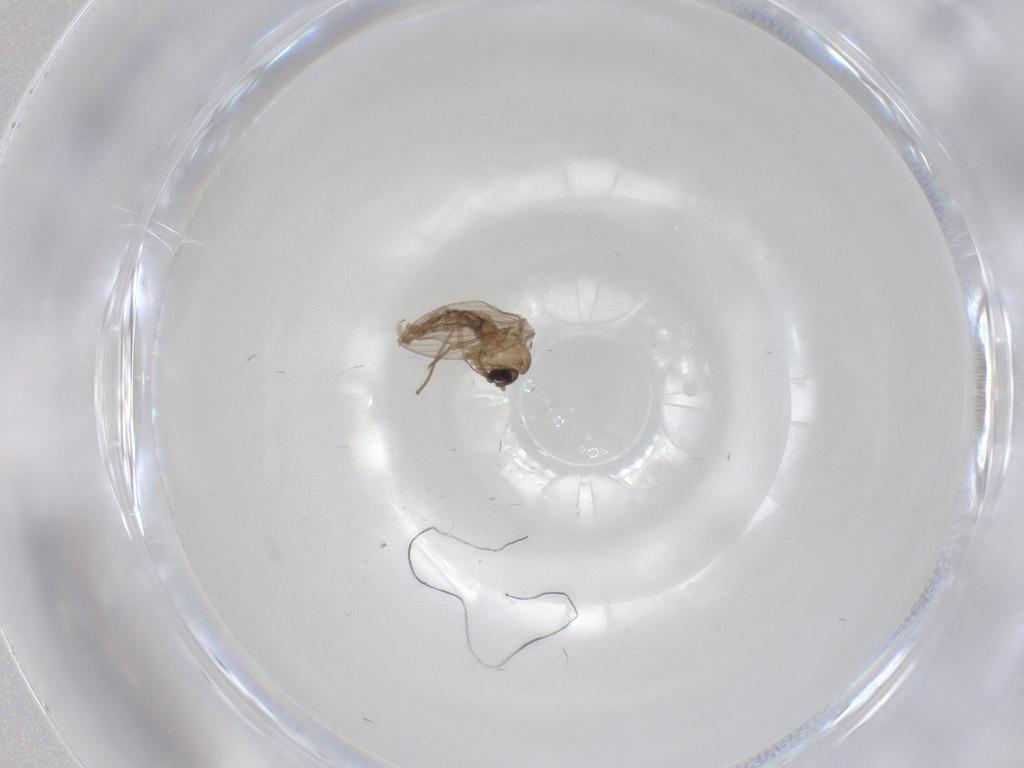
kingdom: Animalia
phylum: Arthropoda
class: Insecta
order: Diptera
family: Psychodidae
